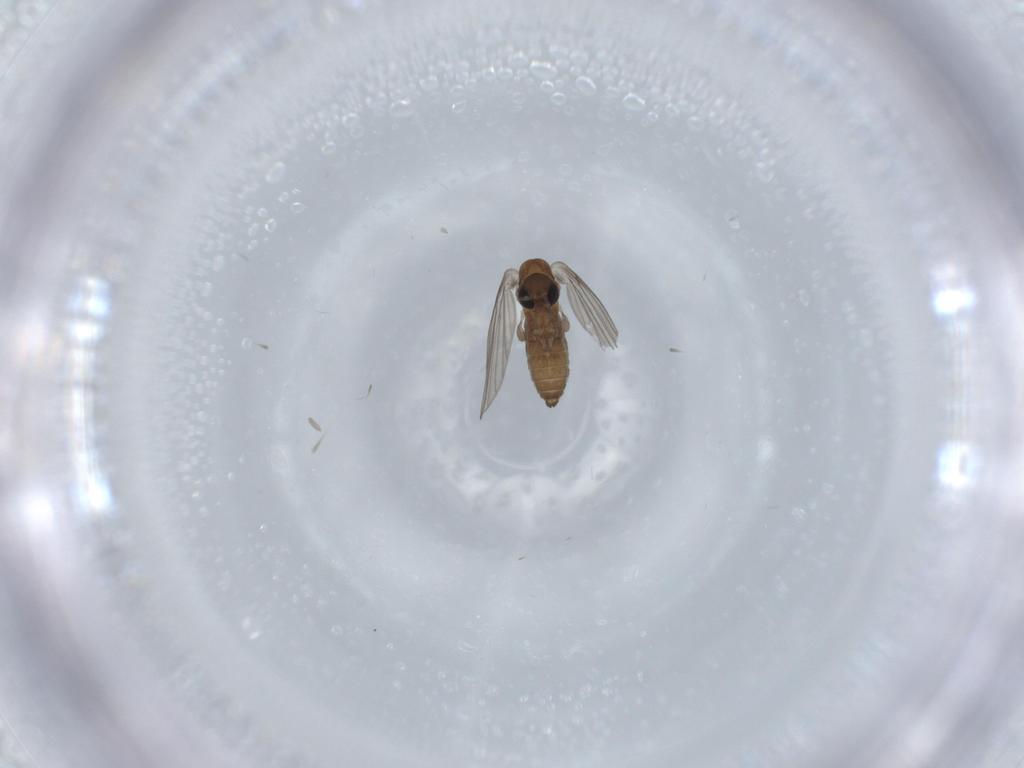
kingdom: Animalia
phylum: Arthropoda
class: Insecta
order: Diptera
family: Psychodidae
